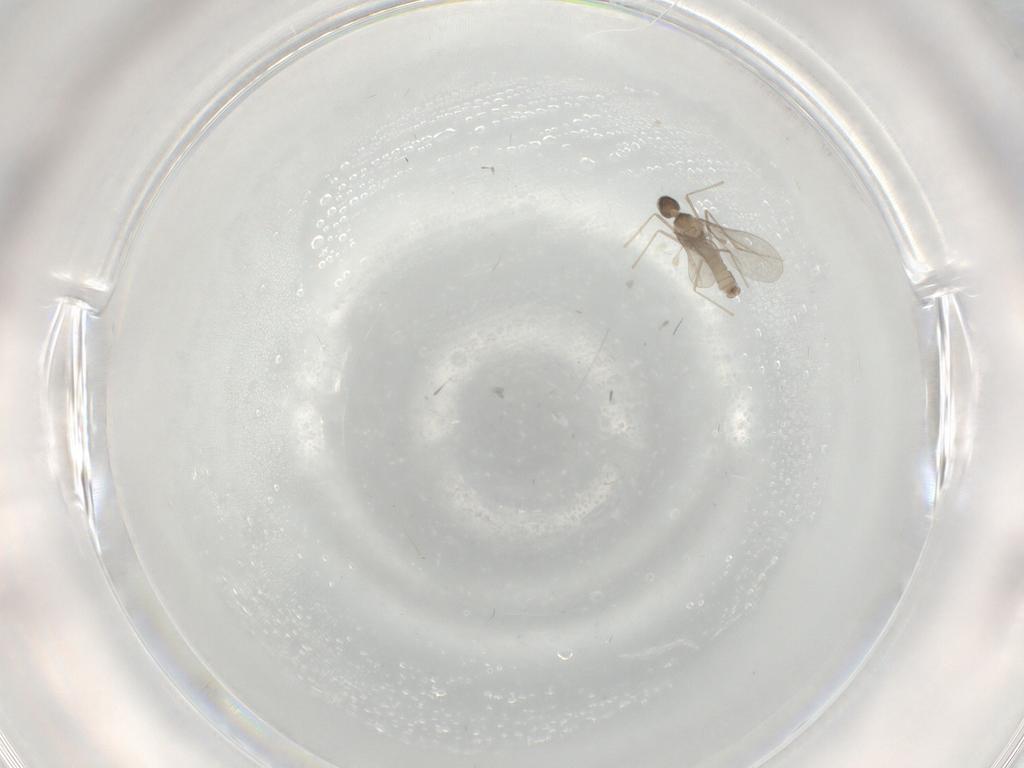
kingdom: Animalia
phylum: Arthropoda
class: Insecta
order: Diptera
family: Cecidomyiidae
